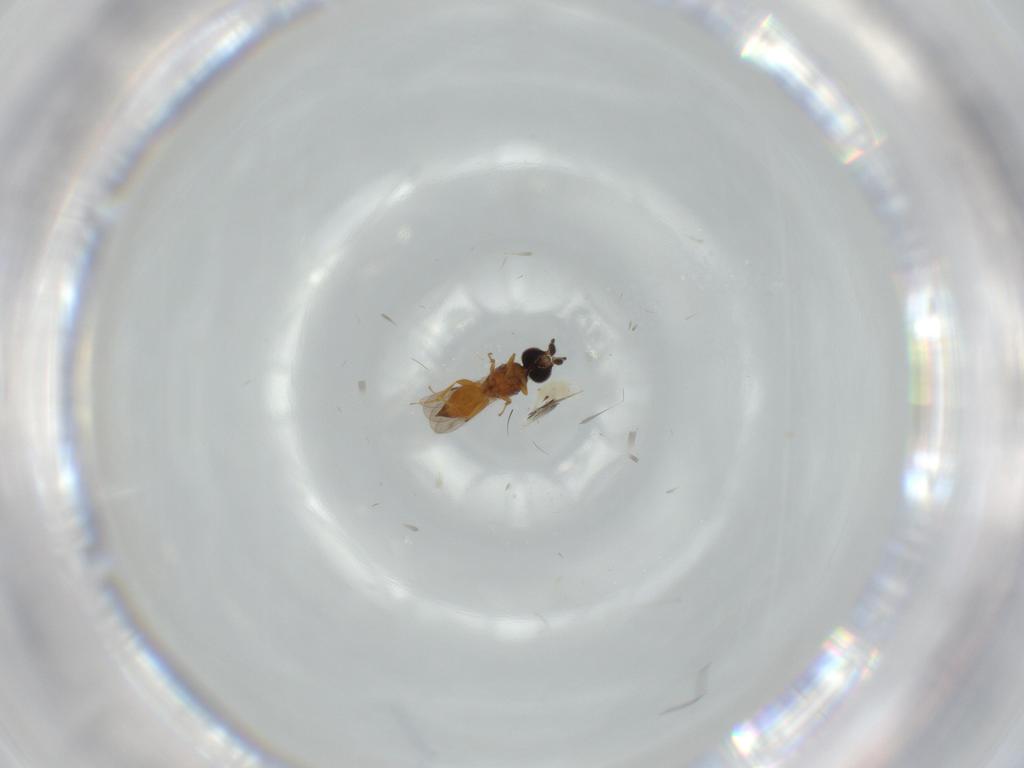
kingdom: Animalia
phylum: Arthropoda
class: Insecta
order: Hymenoptera
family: Ceraphronidae
